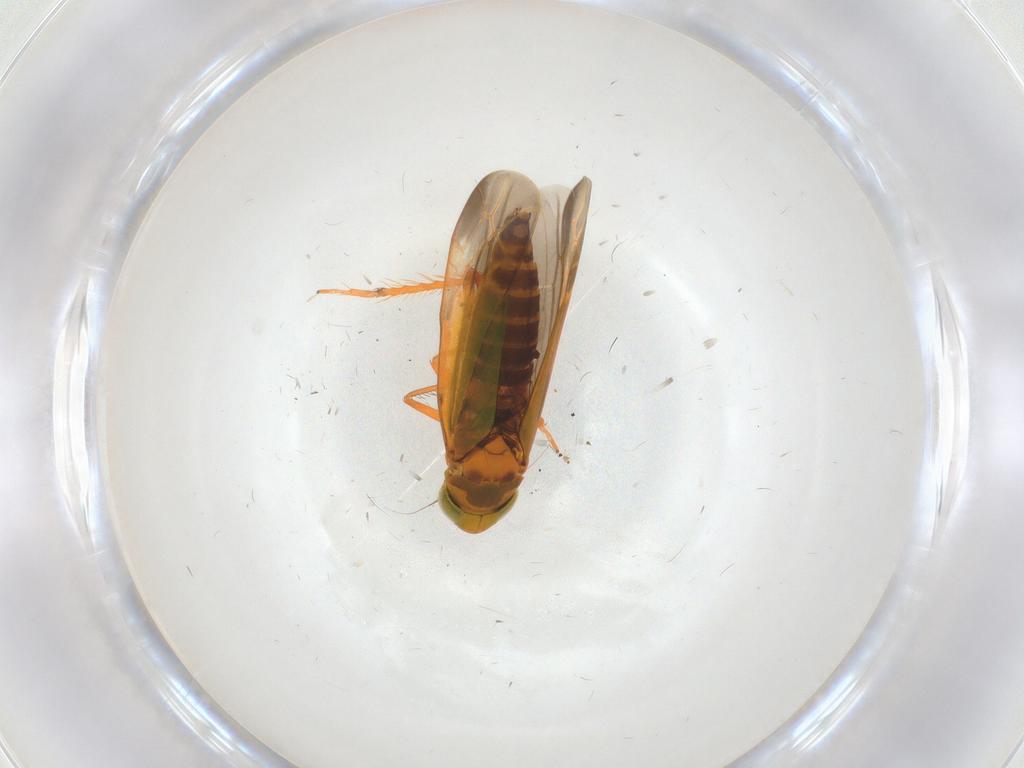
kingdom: Animalia
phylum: Arthropoda
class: Insecta
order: Hemiptera
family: Cicadellidae
